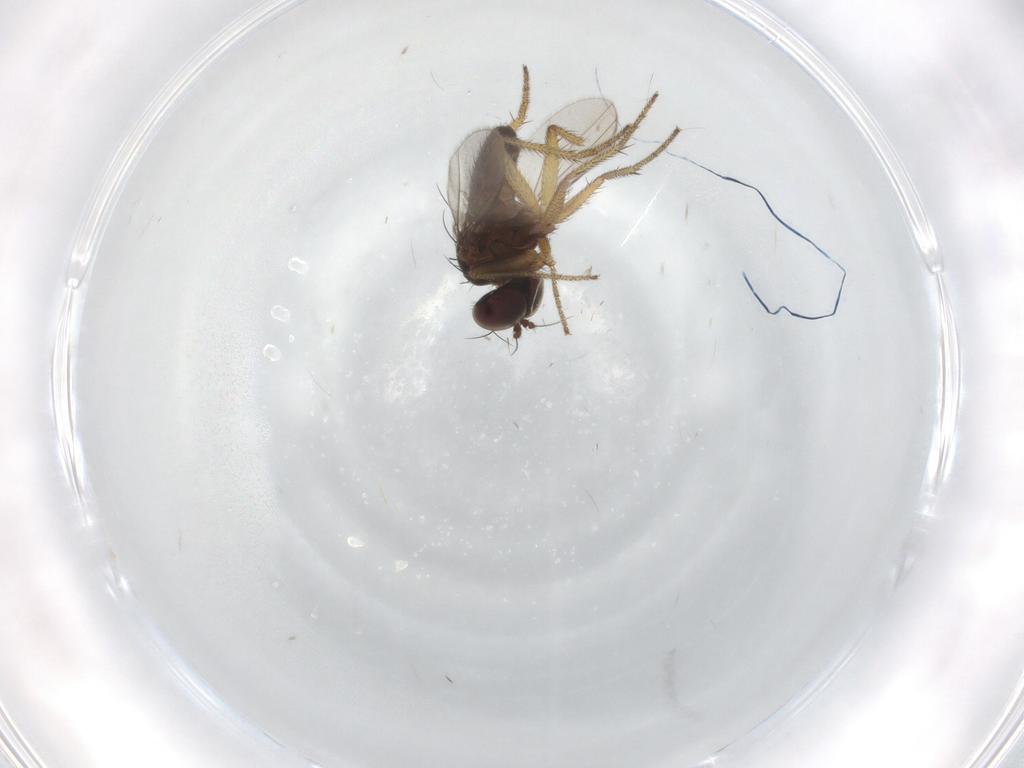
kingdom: Animalia
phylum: Arthropoda
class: Insecta
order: Diptera
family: Chironomidae
